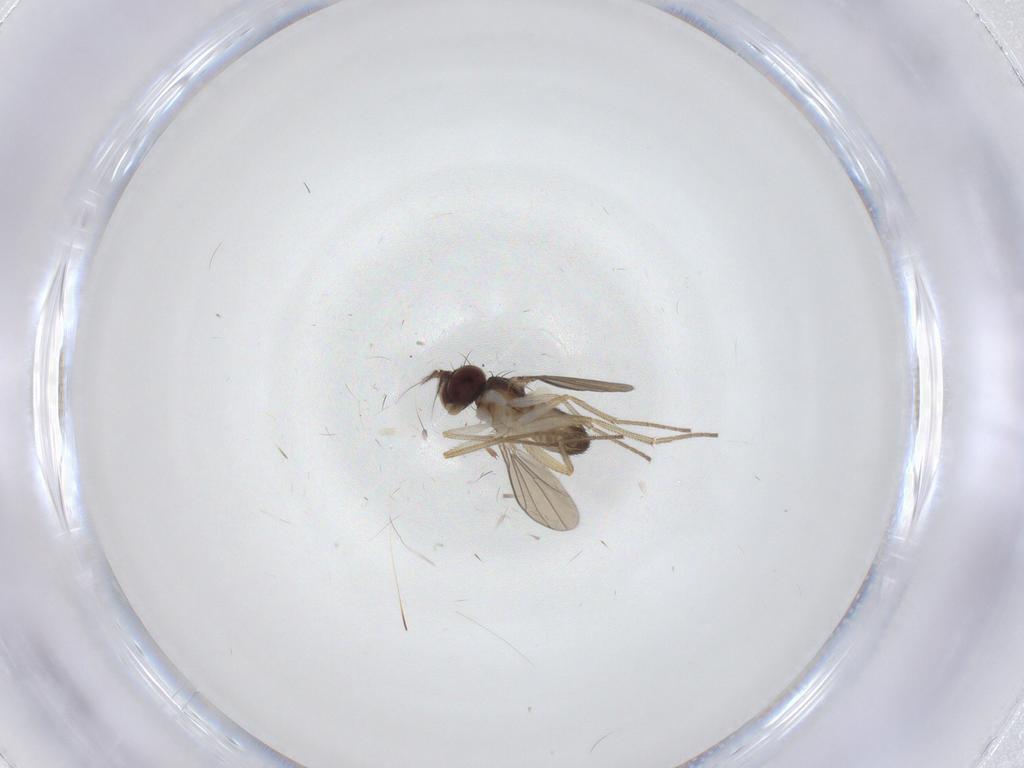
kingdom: Animalia
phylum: Arthropoda
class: Insecta
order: Diptera
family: Dolichopodidae
